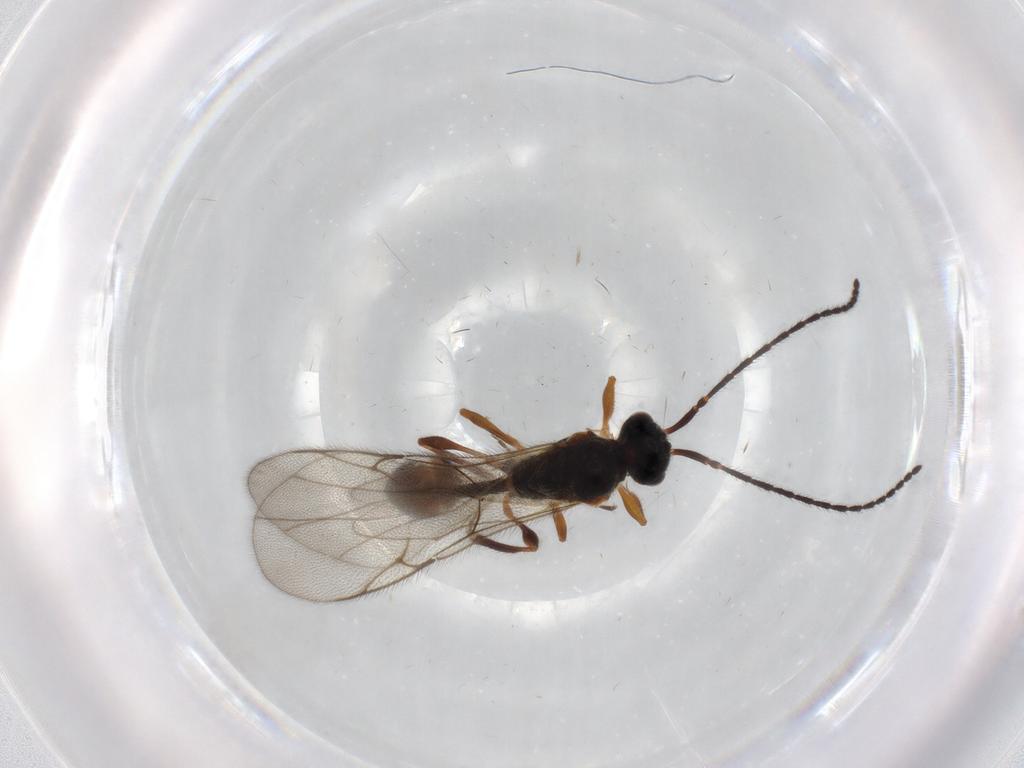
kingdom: Animalia
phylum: Arthropoda
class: Insecta
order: Hymenoptera
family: Diapriidae
